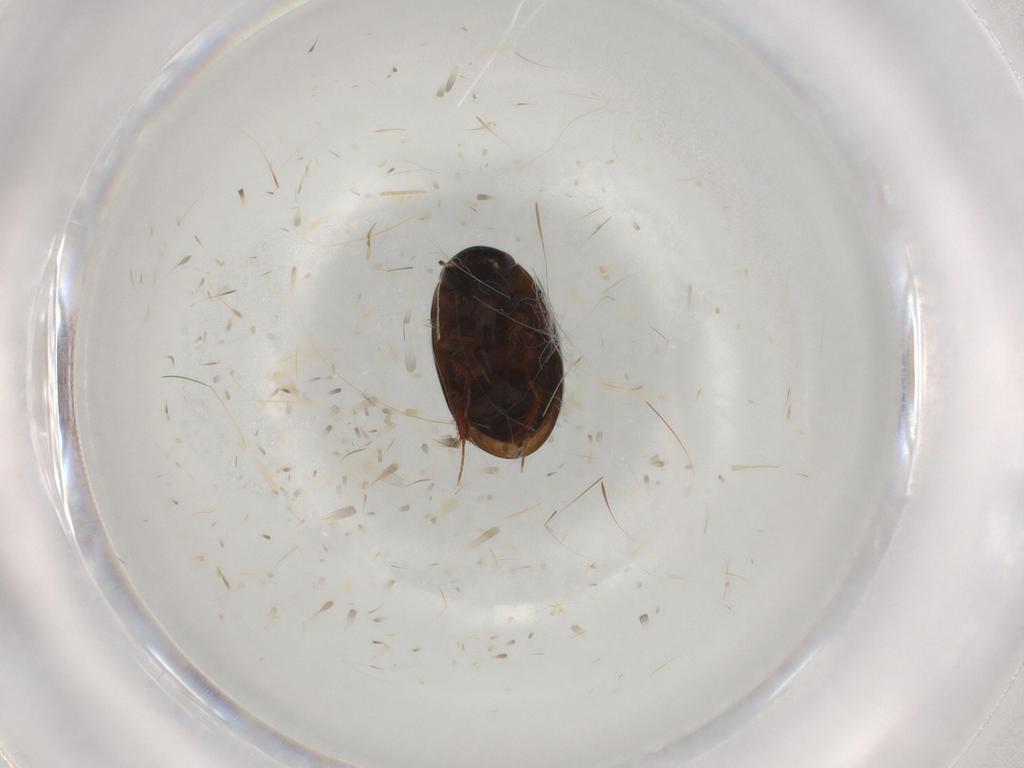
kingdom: Animalia
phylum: Arthropoda
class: Insecta
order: Coleoptera
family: Hydrophilidae
